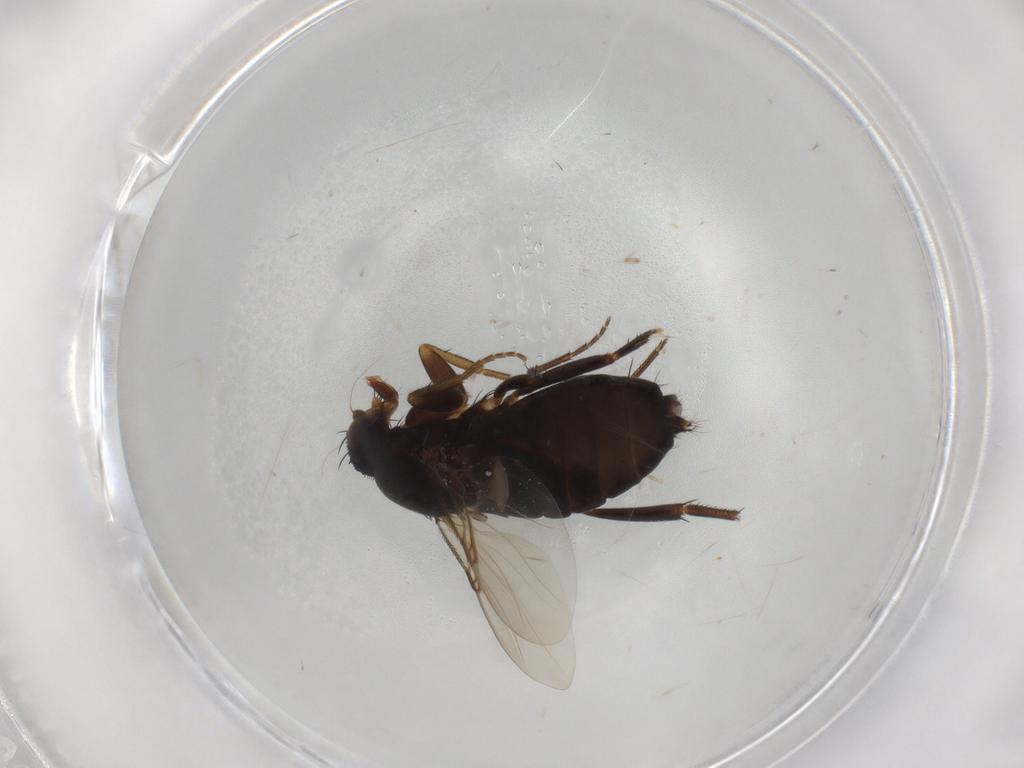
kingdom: Animalia
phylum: Arthropoda
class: Insecta
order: Diptera
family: Phoridae
